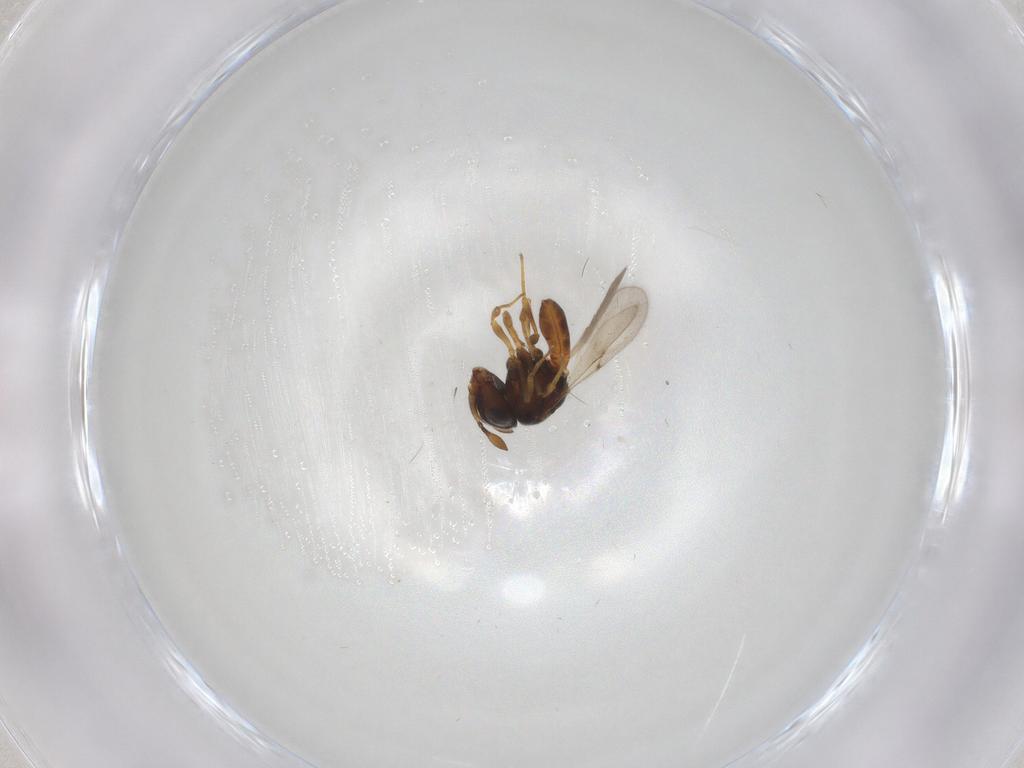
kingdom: Animalia
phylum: Arthropoda
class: Insecta
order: Hymenoptera
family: Scelionidae
